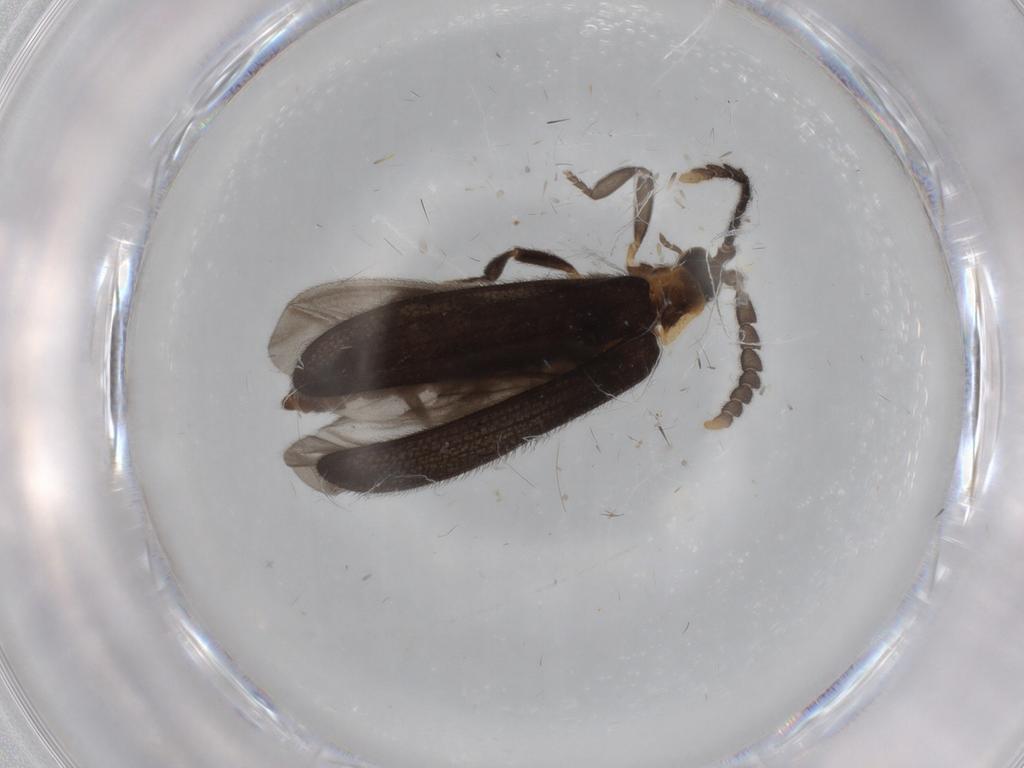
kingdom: Animalia
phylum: Arthropoda
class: Insecta
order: Coleoptera
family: Lycidae
